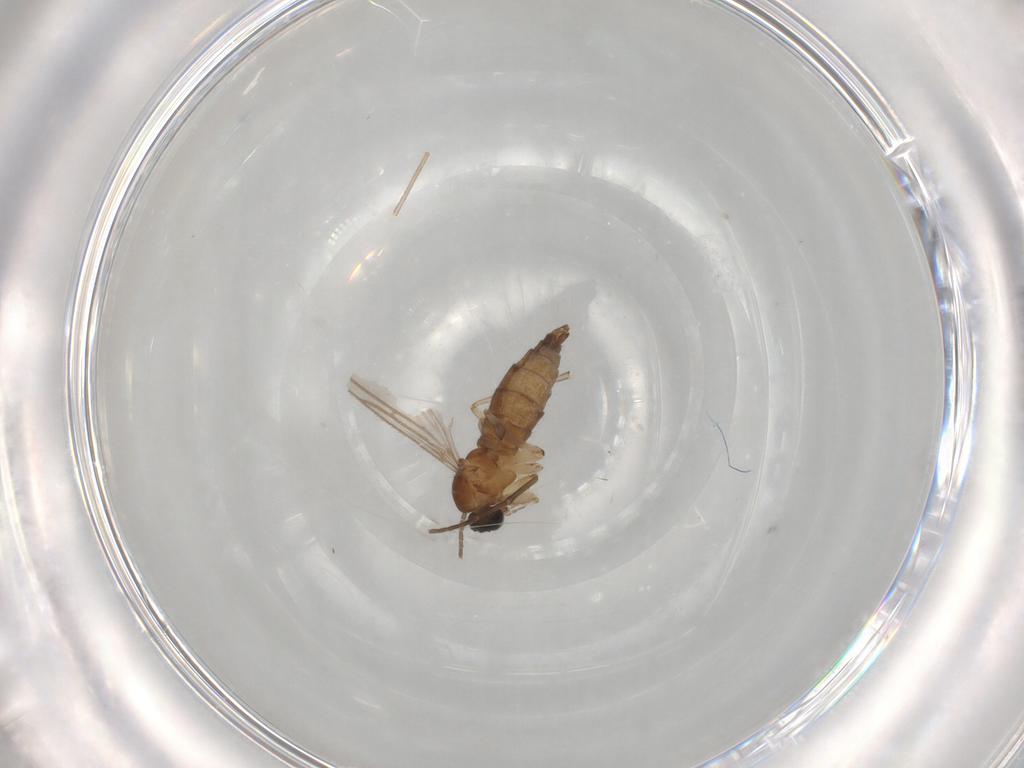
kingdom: Animalia
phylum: Arthropoda
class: Insecta
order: Diptera
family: Sciaridae
